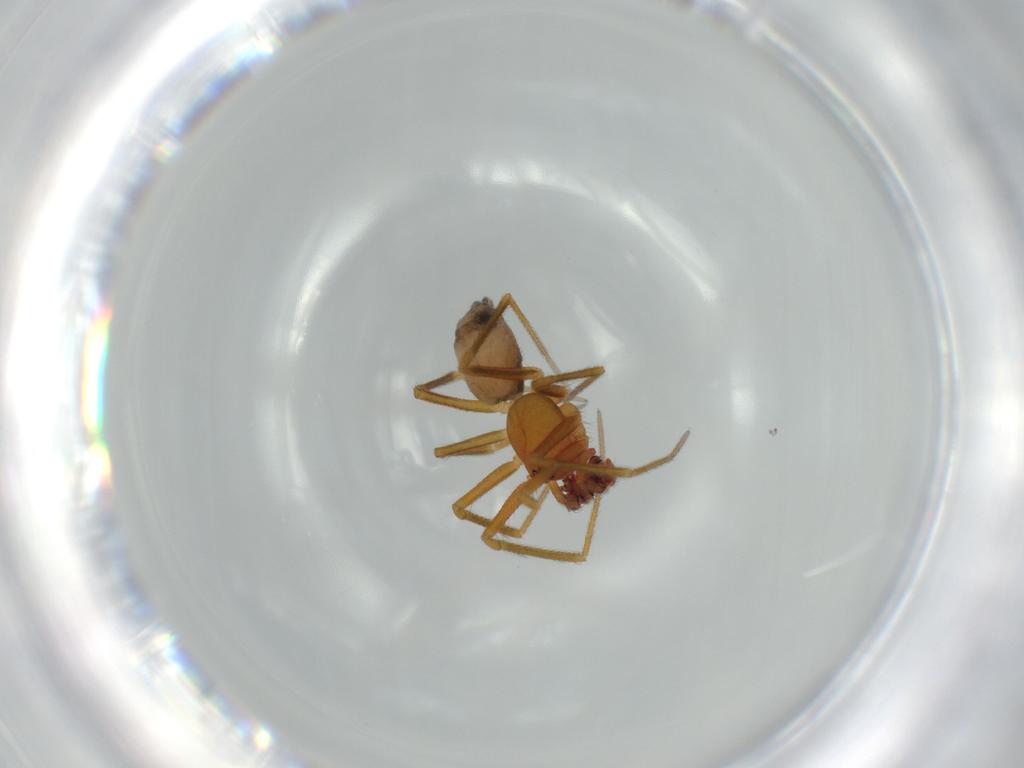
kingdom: Animalia
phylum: Arthropoda
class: Arachnida
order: Araneae
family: Linyphiidae
